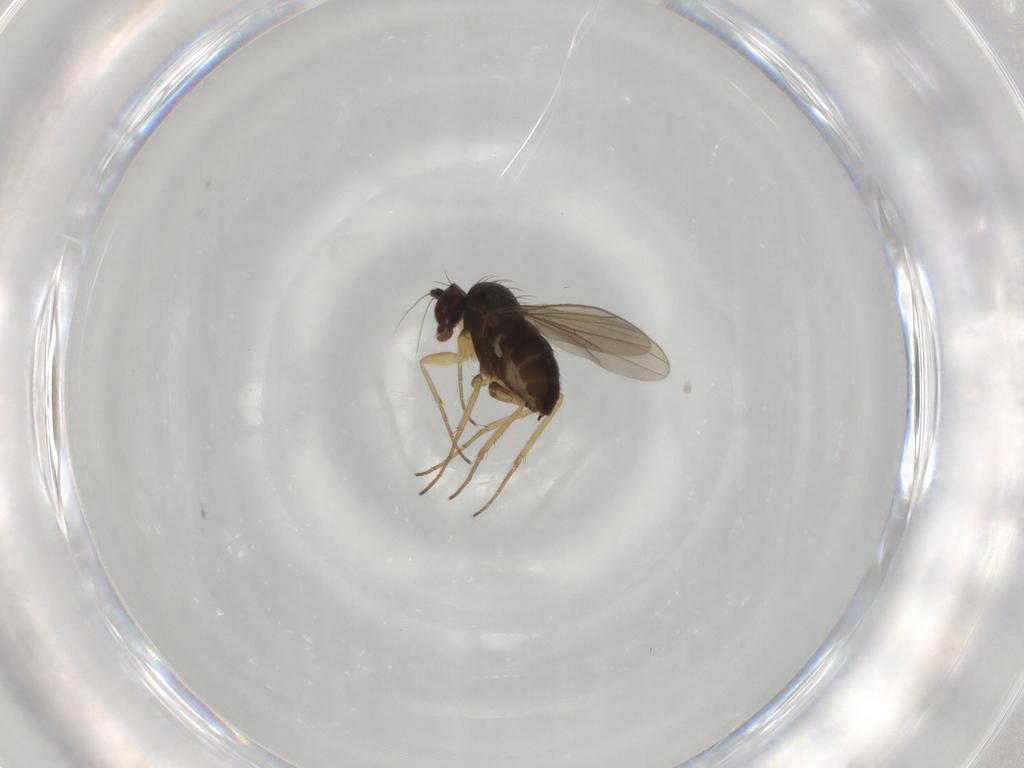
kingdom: Animalia
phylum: Arthropoda
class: Insecta
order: Diptera
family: Dolichopodidae
